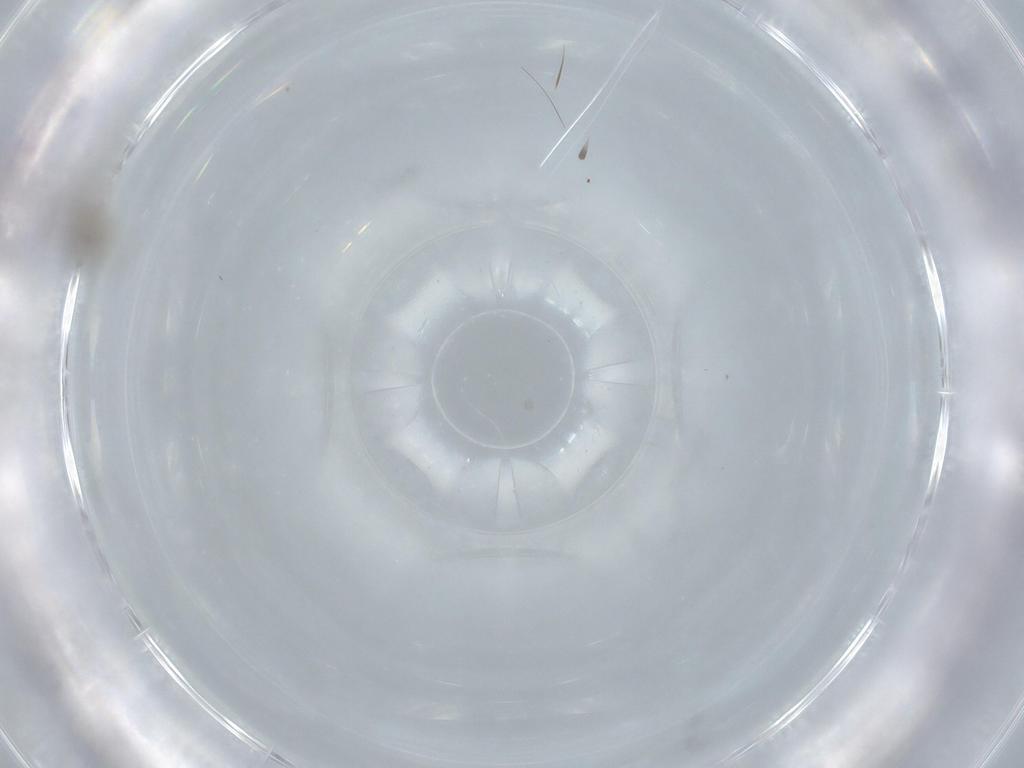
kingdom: Animalia
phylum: Arthropoda
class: Insecta
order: Diptera
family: Cecidomyiidae
